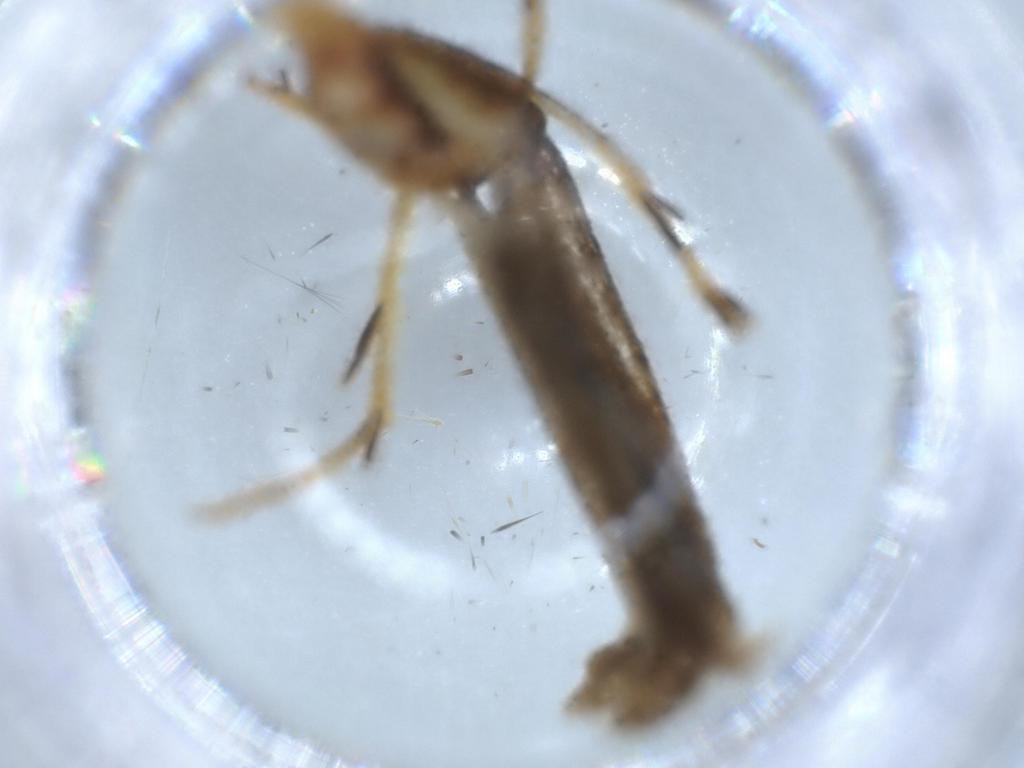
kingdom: Animalia
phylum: Arthropoda
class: Insecta
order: Lepidoptera
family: Lecithoceridae
